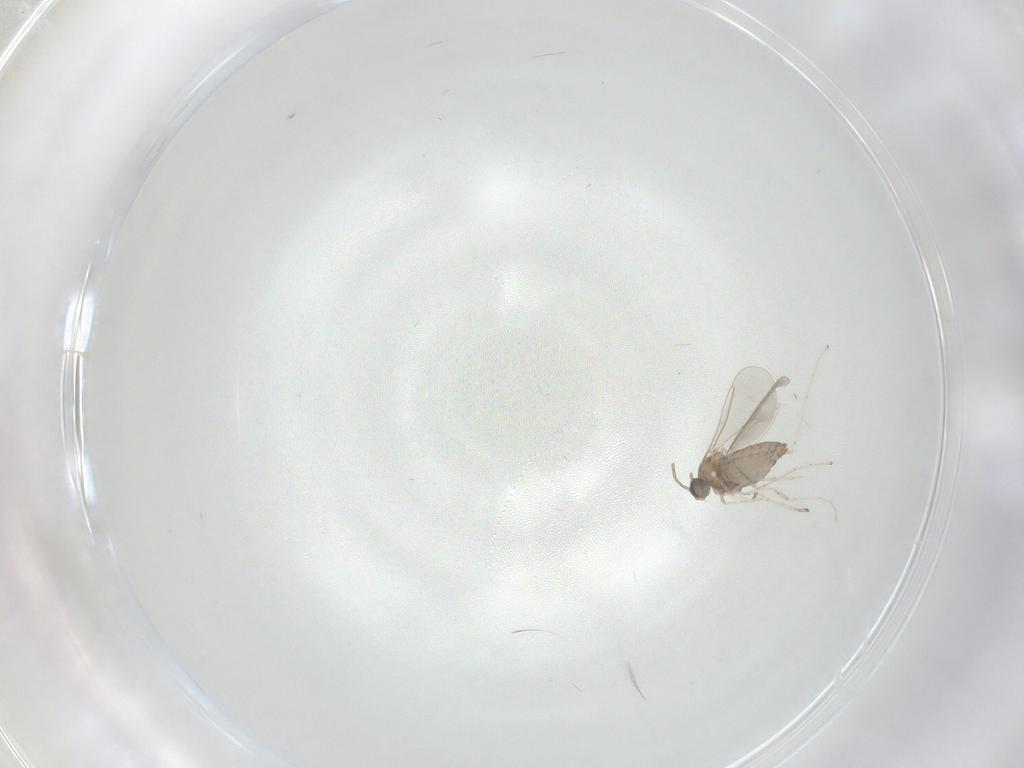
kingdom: Animalia
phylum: Arthropoda
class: Insecta
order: Diptera
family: Cecidomyiidae
